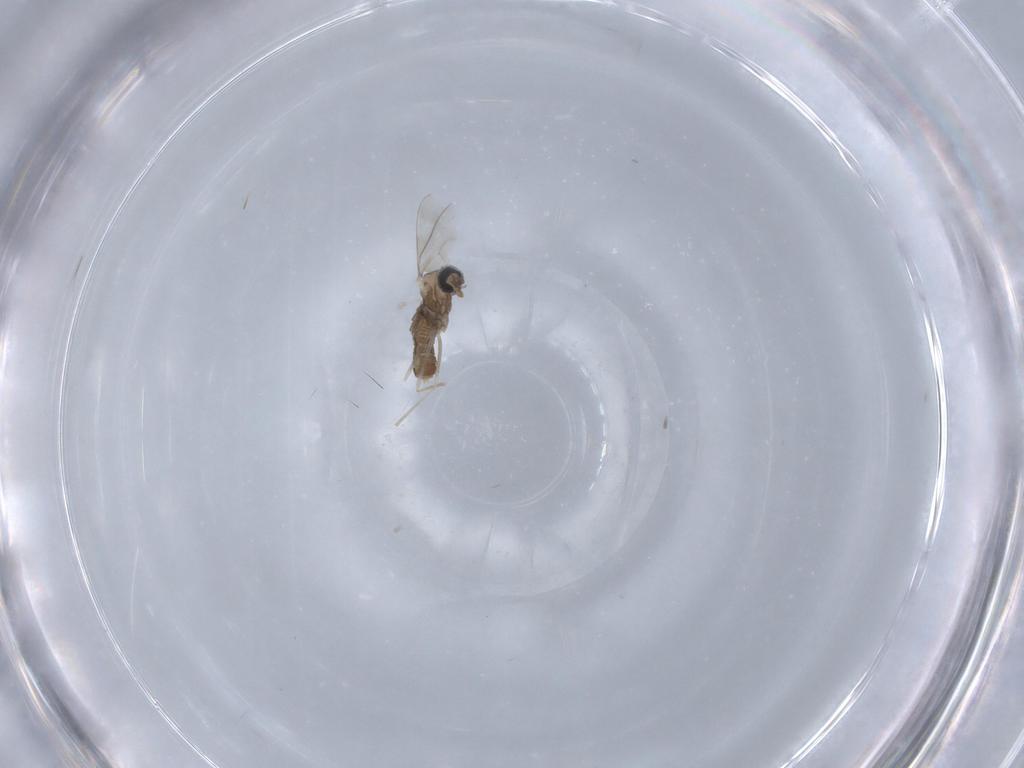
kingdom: Animalia
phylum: Arthropoda
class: Insecta
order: Diptera
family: Cecidomyiidae
